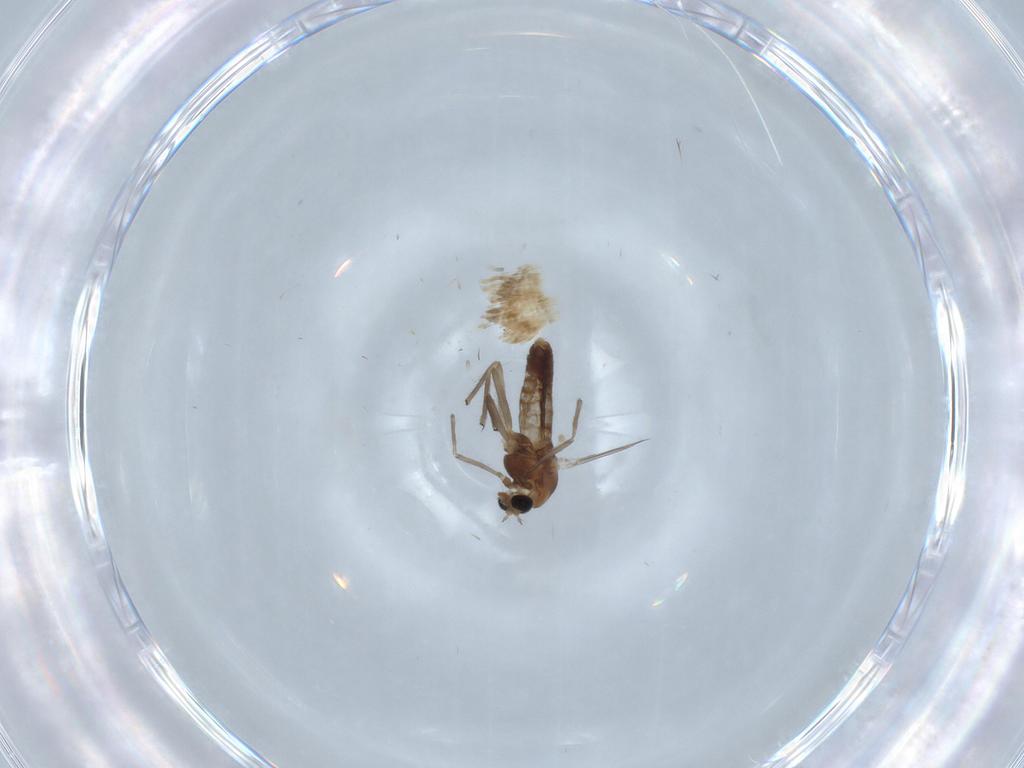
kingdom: Animalia
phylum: Arthropoda
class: Insecta
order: Diptera
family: Chironomidae
